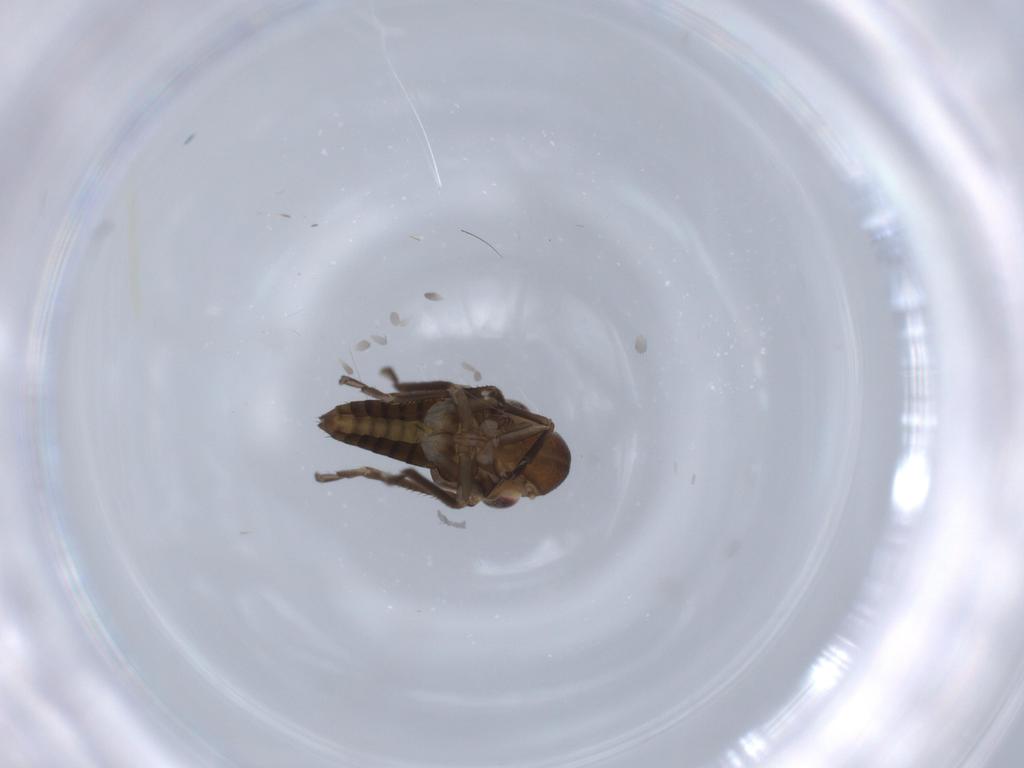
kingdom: Animalia
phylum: Arthropoda
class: Insecta
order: Hemiptera
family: Cicadellidae
